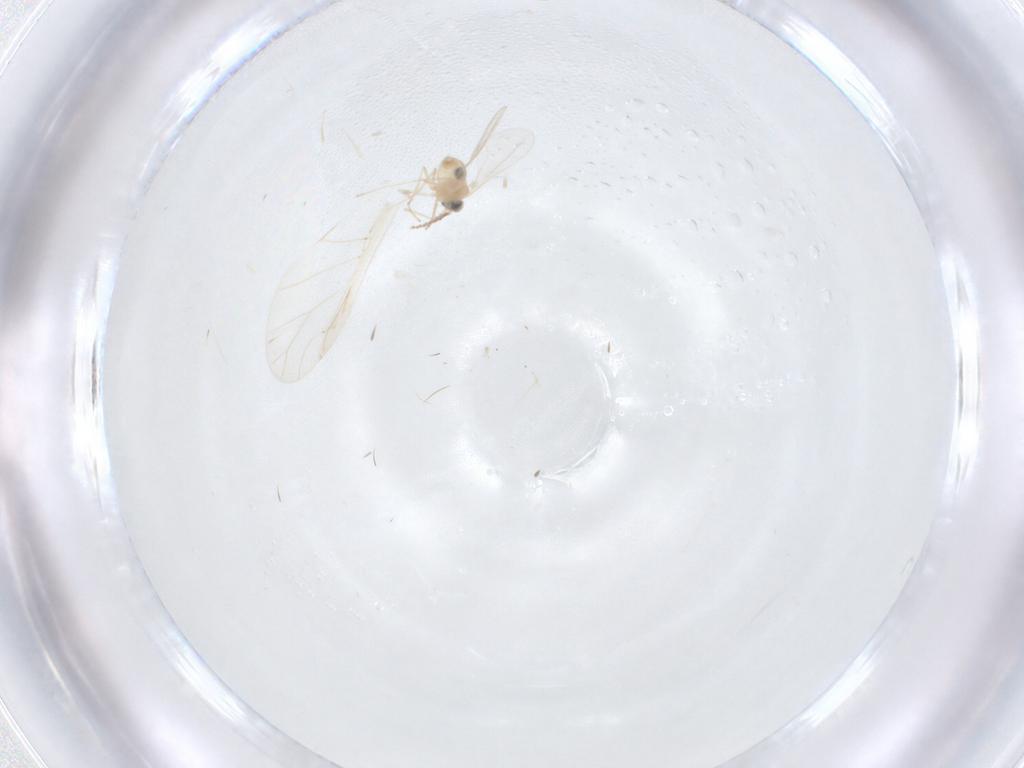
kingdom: Animalia
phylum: Arthropoda
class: Insecta
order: Diptera
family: Cecidomyiidae
